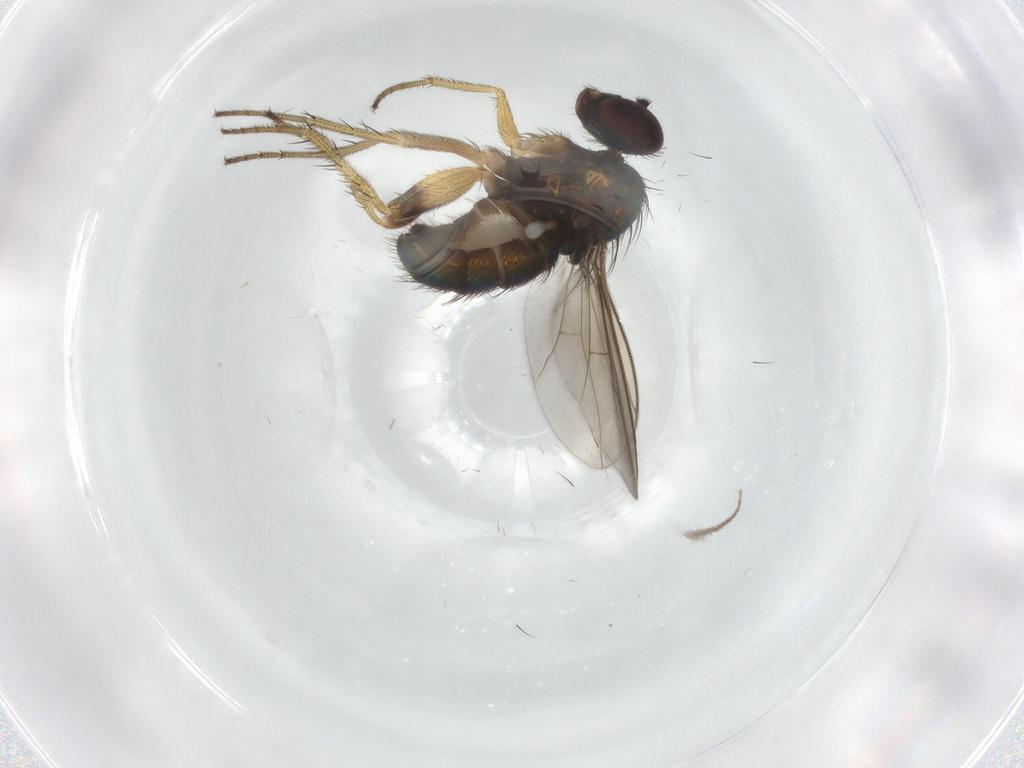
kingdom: Animalia
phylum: Arthropoda
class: Insecta
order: Diptera
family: Dolichopodidae
